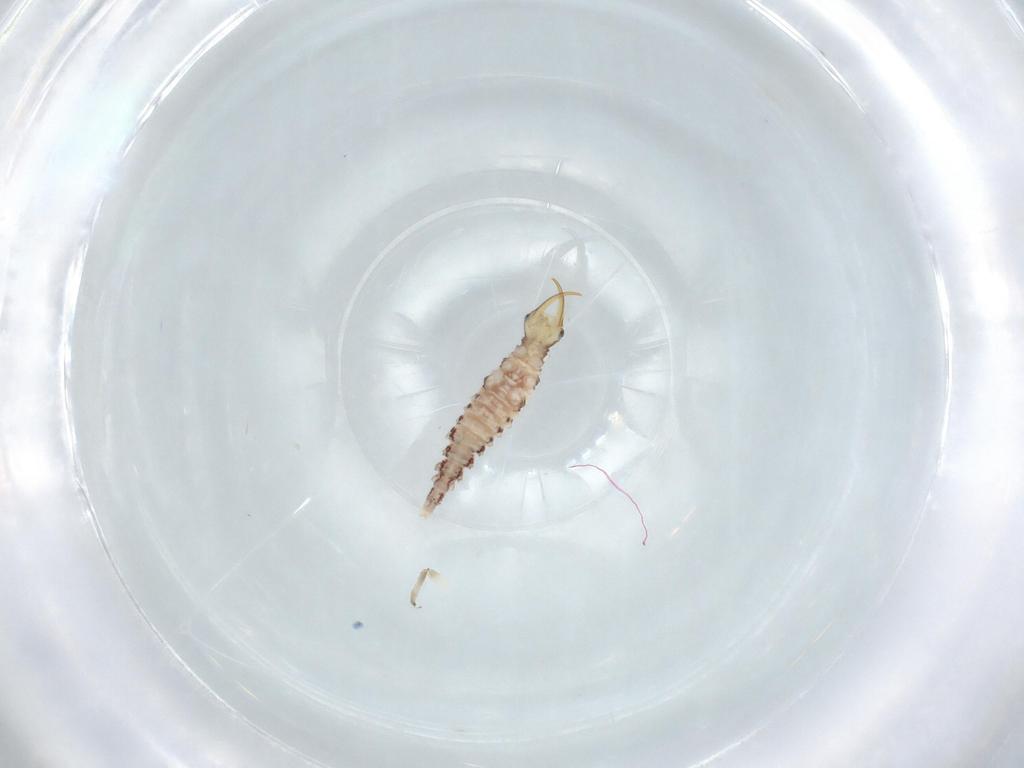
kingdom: Animalia
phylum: Arthropoda
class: Insecta
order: Neuroptera
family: Chrysopidae
